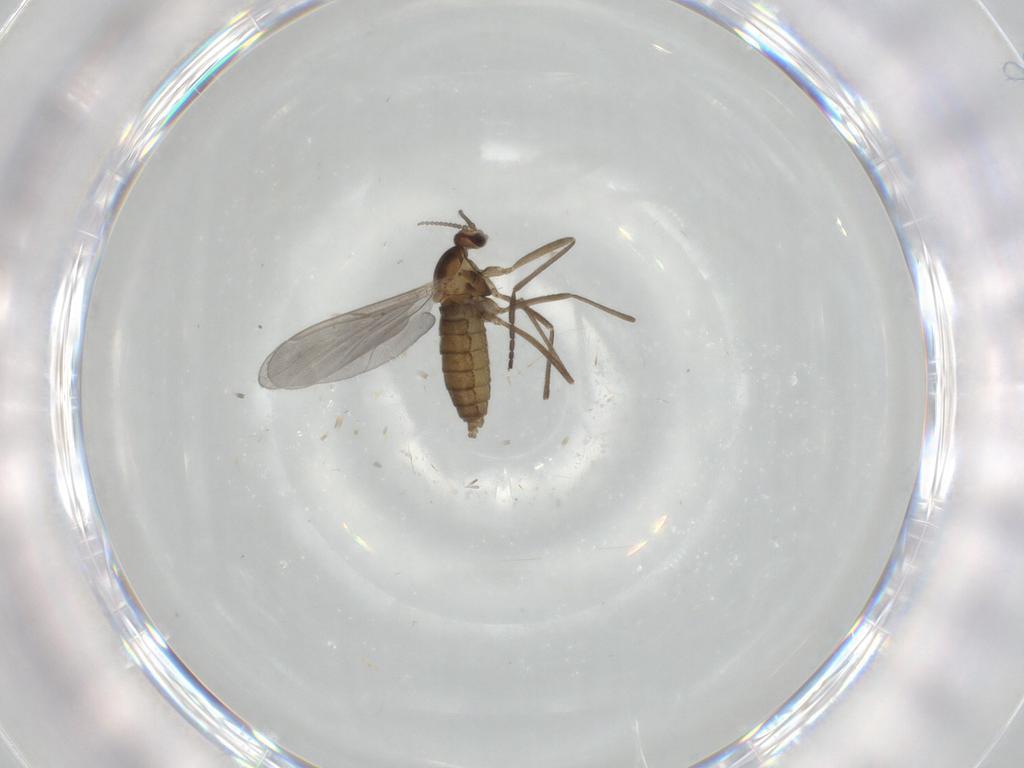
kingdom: Animalia
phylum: Arthropoda
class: Insecta
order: Diptera
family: Cecidomyiidae
